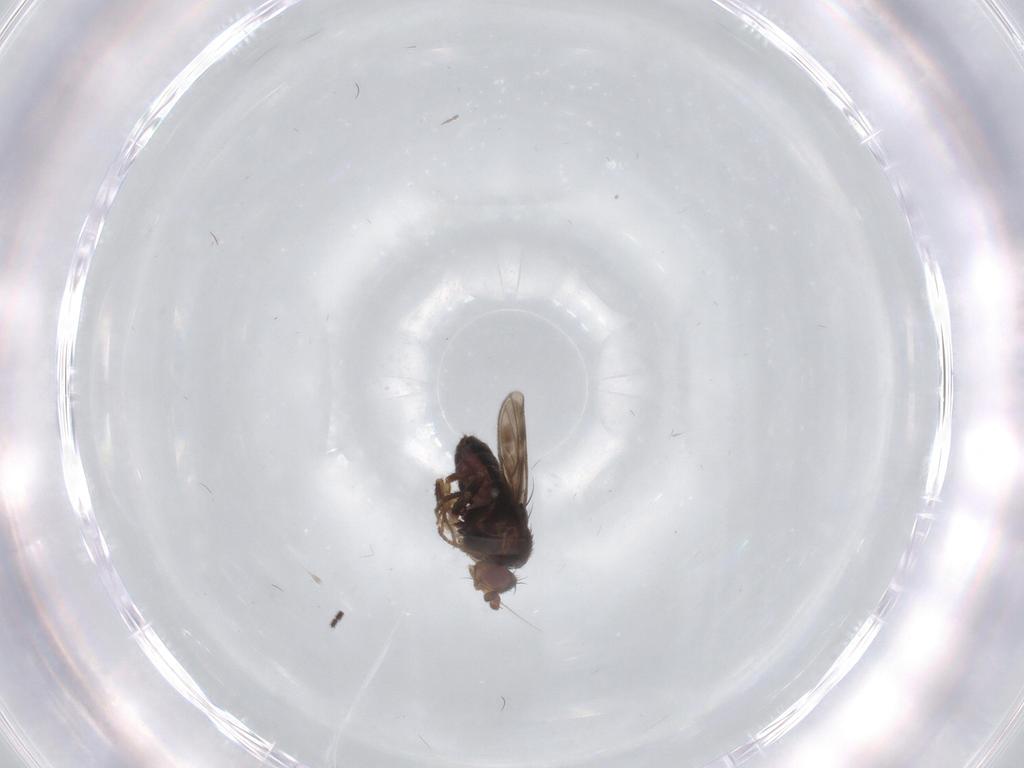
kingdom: Animalia
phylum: Arthropoda
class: Insecta
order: Diptera
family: Sphaeroceridae
